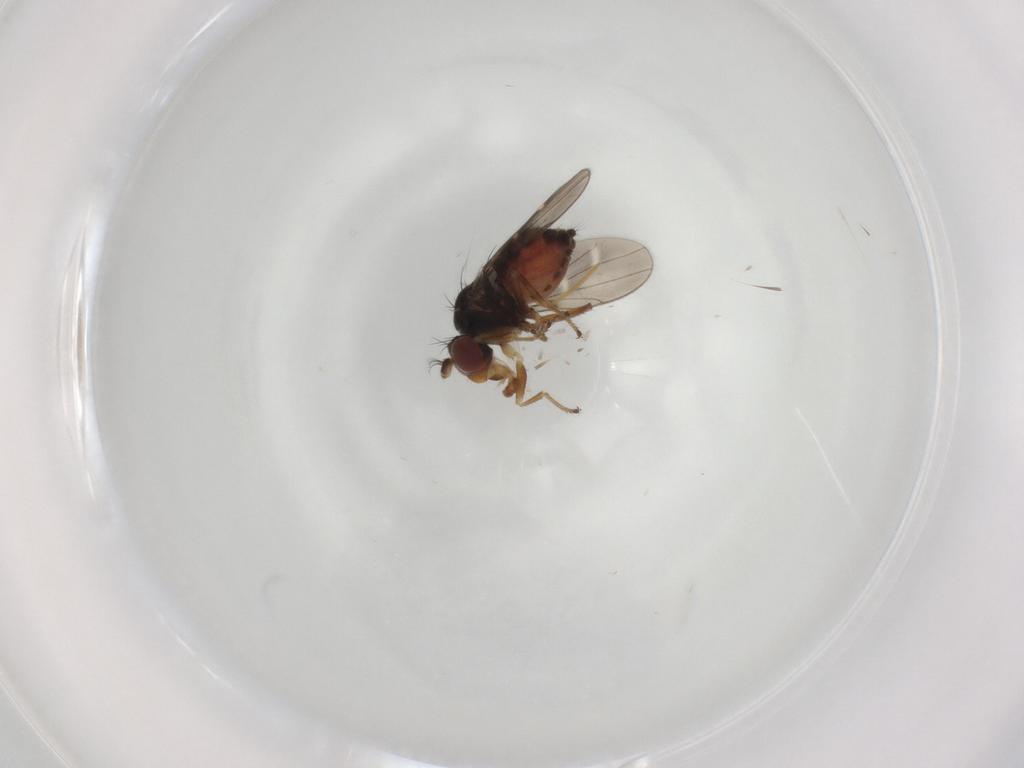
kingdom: Animalia
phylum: Arthropoda
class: Insecta
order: Diptera
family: Ephydridae
